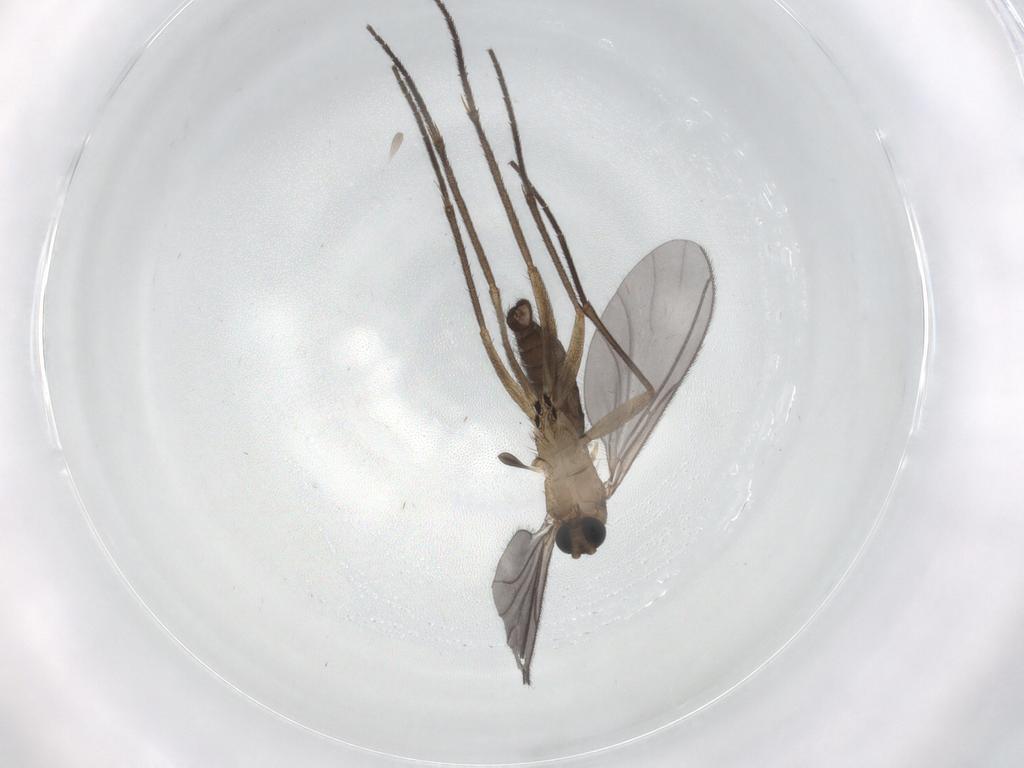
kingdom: Animalia
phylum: Arthropoda
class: Insecta
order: Diptera
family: Sciaridae
